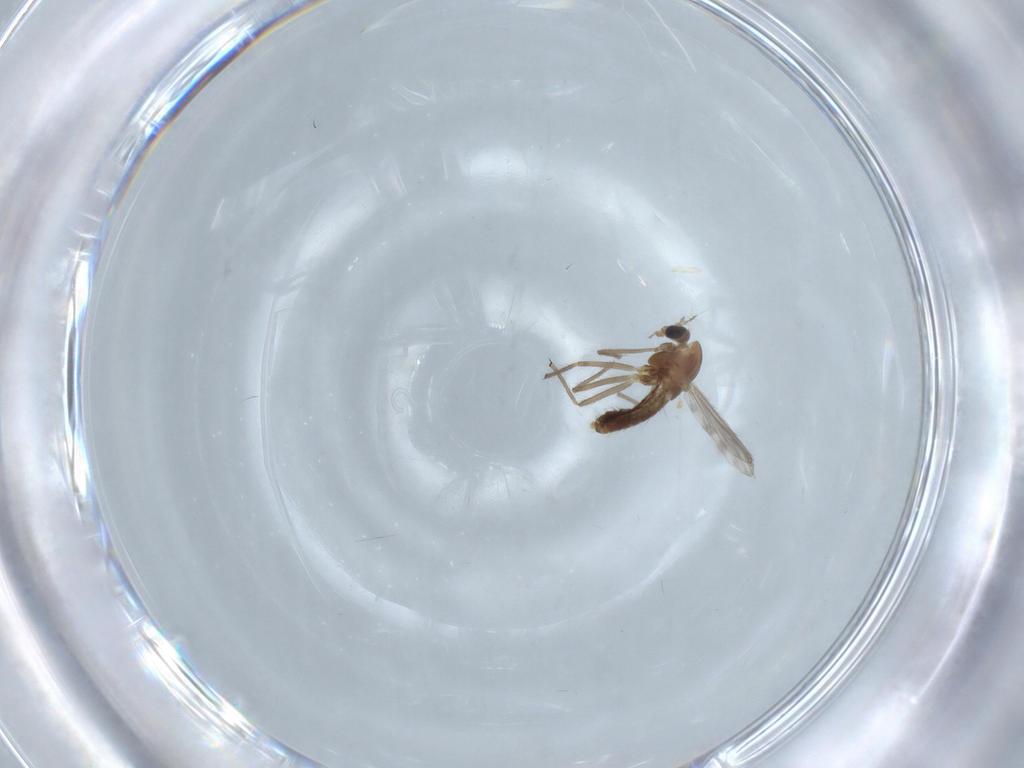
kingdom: Animalia
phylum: Arthropoda
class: Insecta
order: Diptera
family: Chironomidae
